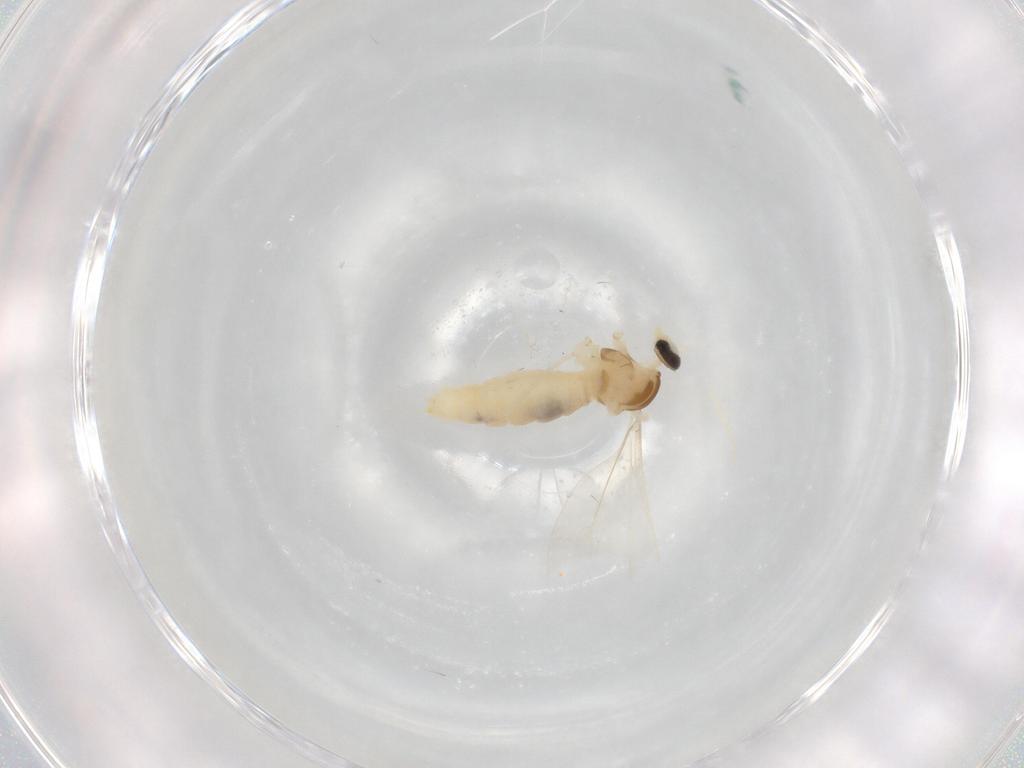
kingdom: Animalia
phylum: Arthropoda
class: Insecta
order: Diptera
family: Cecidomyiidae
